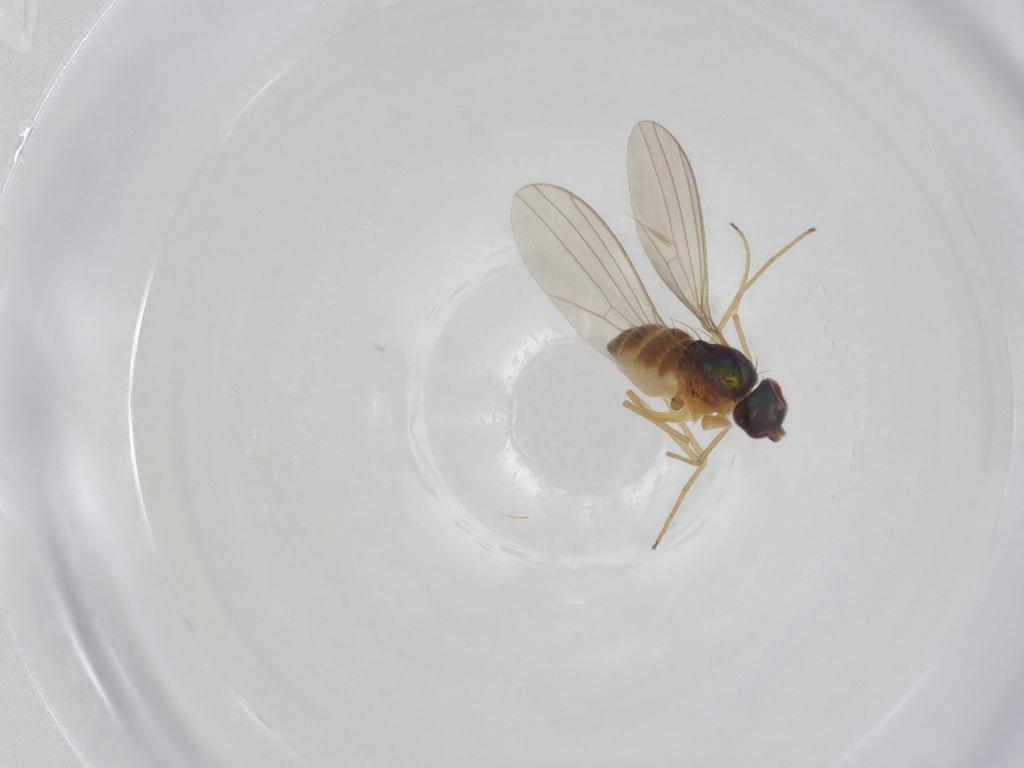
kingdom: Animalia
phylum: Arthropoda
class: Insecta
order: Diptera
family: Dolichopodidae
